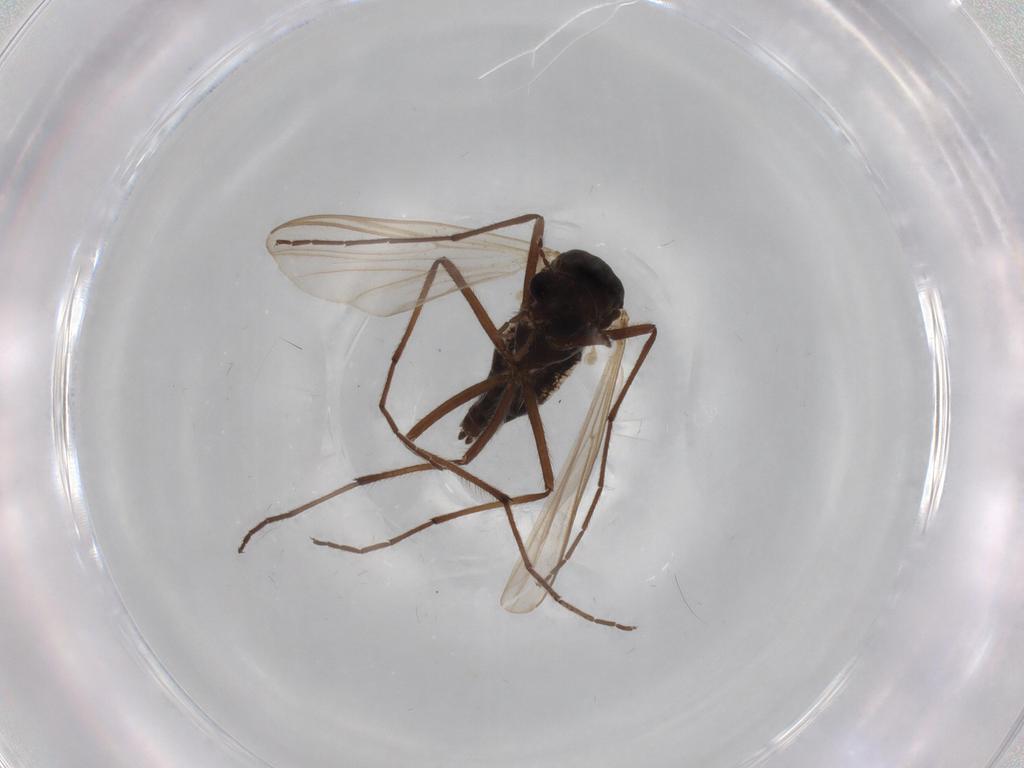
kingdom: Animalia
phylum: Arthropoda
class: Insecta
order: Diptera
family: Psychodidae
